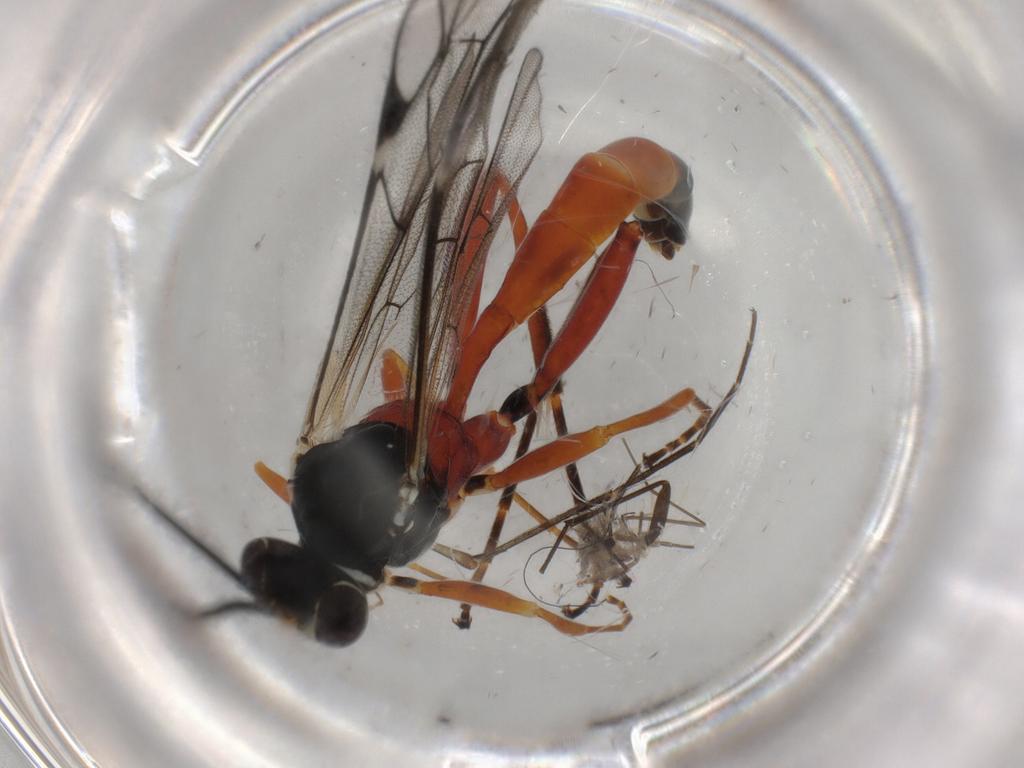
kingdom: Animalia
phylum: Arthropoda
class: Insecta
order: Hymenoptera
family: Ichneumonidae
